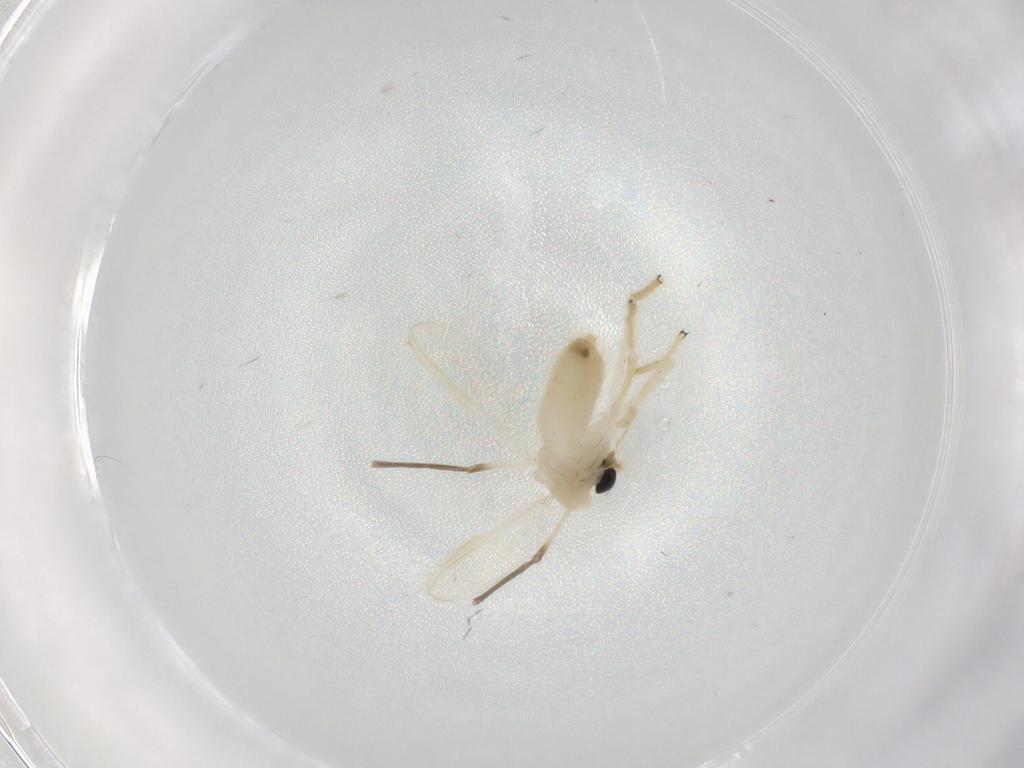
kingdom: Animalia
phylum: Arthropoda
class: Insecta
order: Diptera
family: Sciaridae
